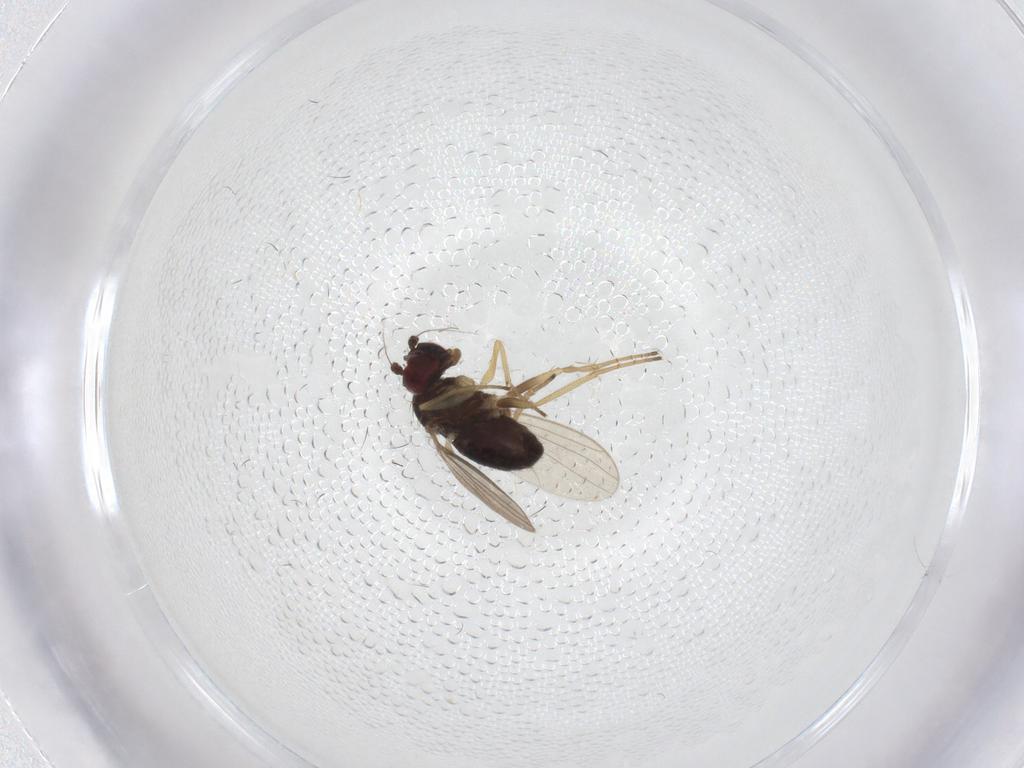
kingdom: Animalia
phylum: Arthropoda
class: Insecta
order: Diptera
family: Dolichopodidae
